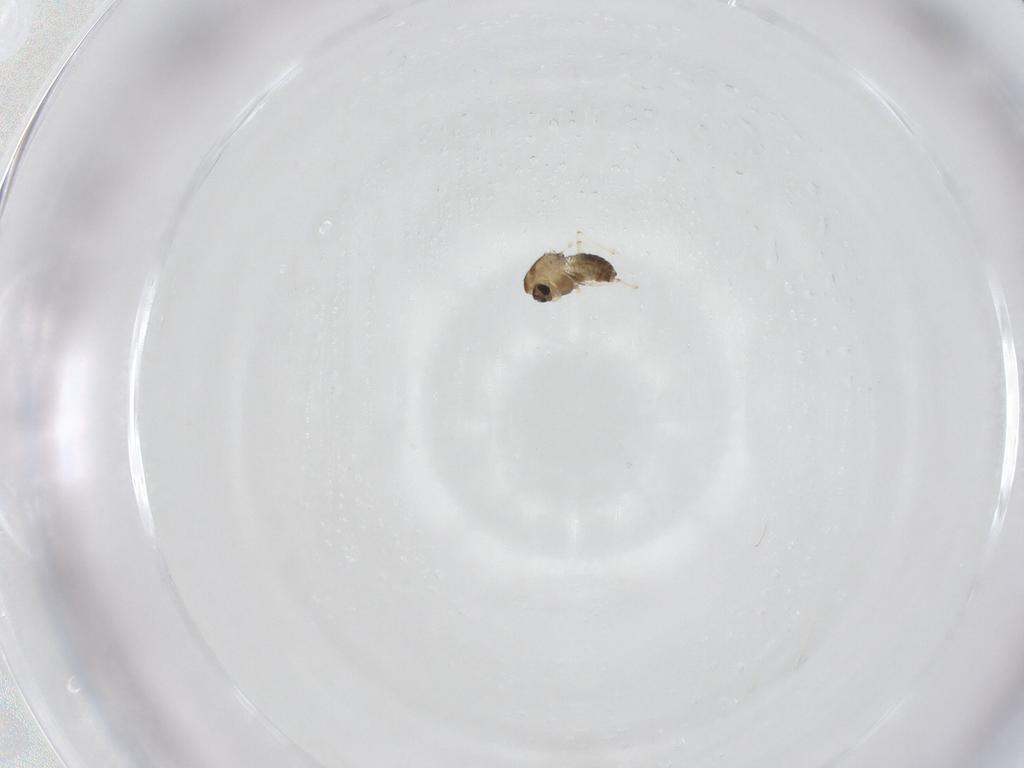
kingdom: Animalia
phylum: Arthropoda
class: Insecta
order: Diptera
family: Chironomidae
